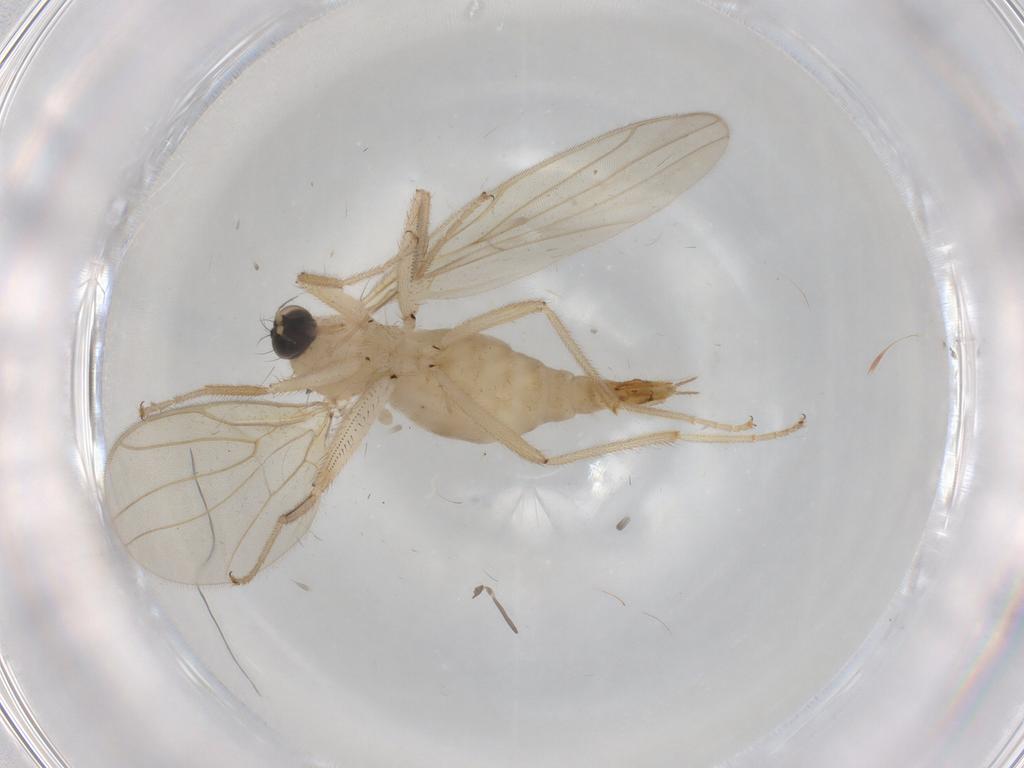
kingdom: Animalia
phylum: Arthropoda
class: Insecta
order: Diptera
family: Hybotidae
